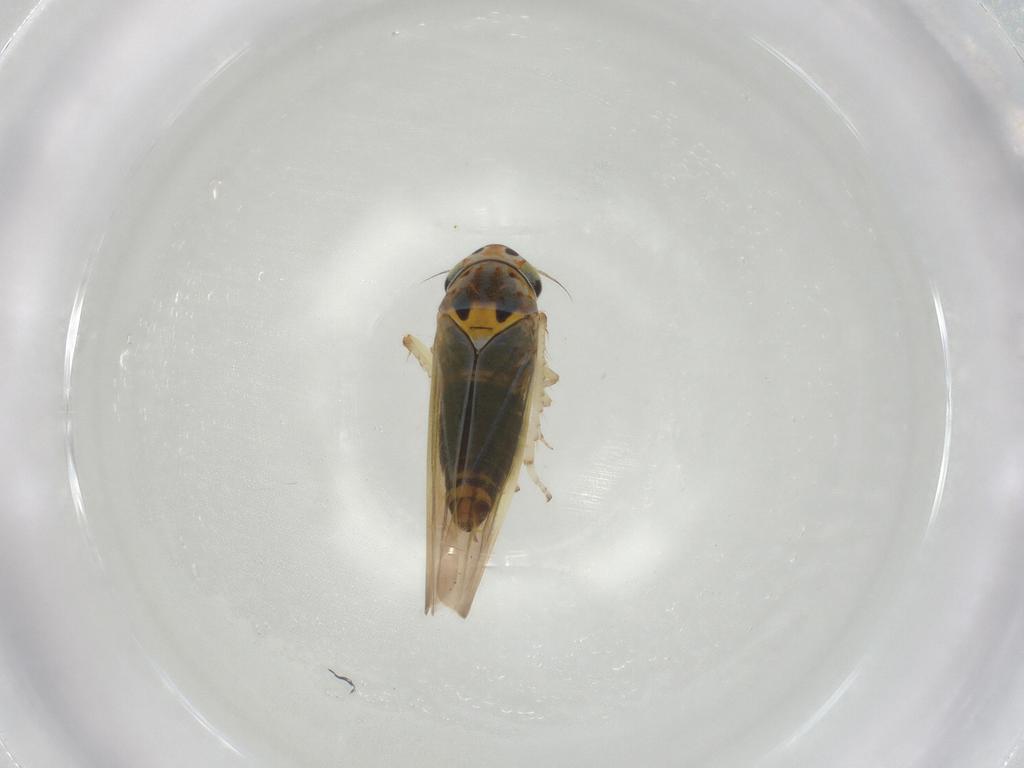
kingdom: Animalia
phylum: Arthropoda
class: Insecta
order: Hemiptera
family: Cicadellidae
